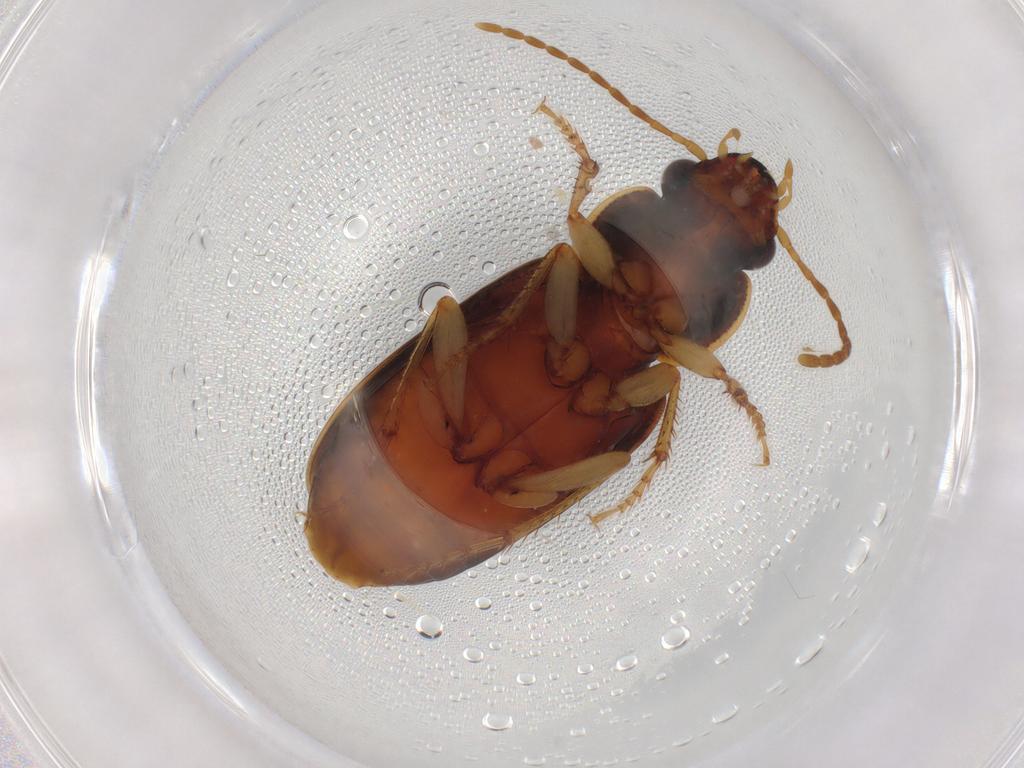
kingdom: Animalia
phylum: Arthropoda
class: Insecta
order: Coleoptera
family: Carabidae
